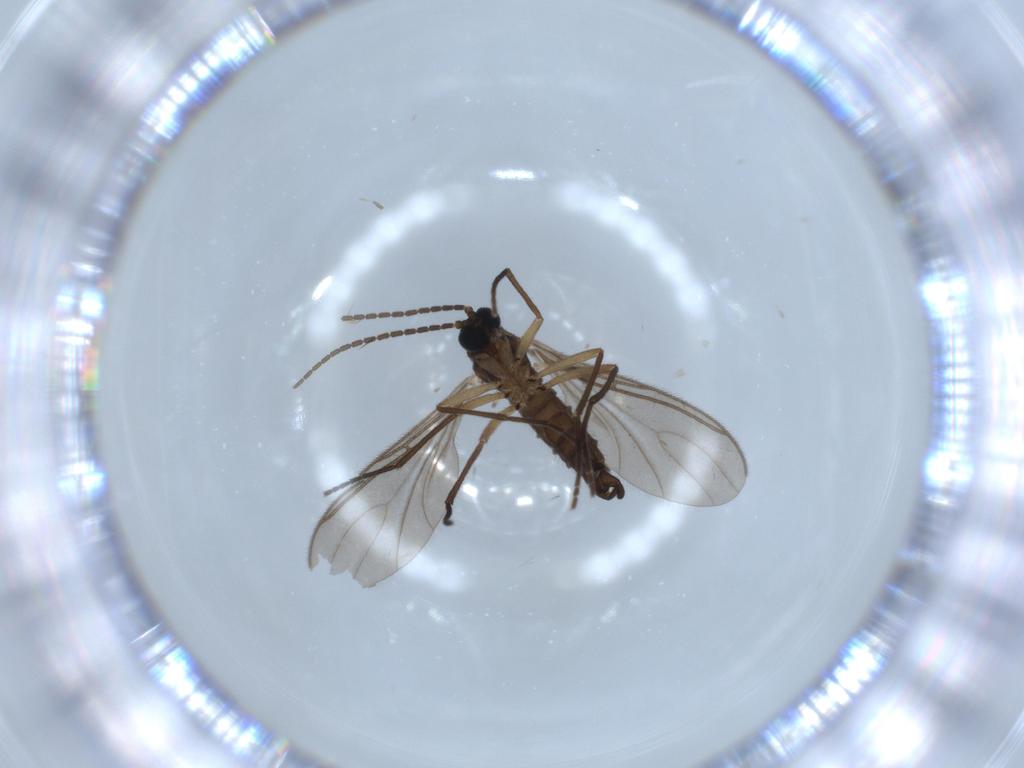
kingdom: Animalia
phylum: Arthropoda
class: Insecta
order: Diptera
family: Sciaridae
